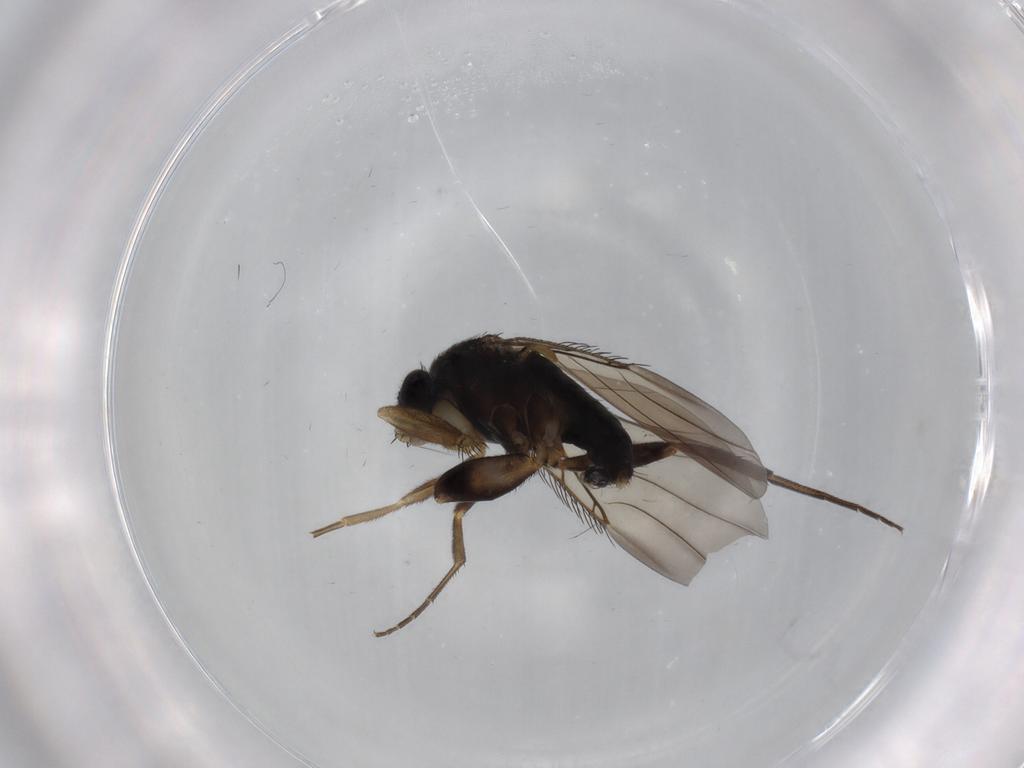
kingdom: Animalia
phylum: Arthropoda
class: Insecta
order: Diptera
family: Phoridae
